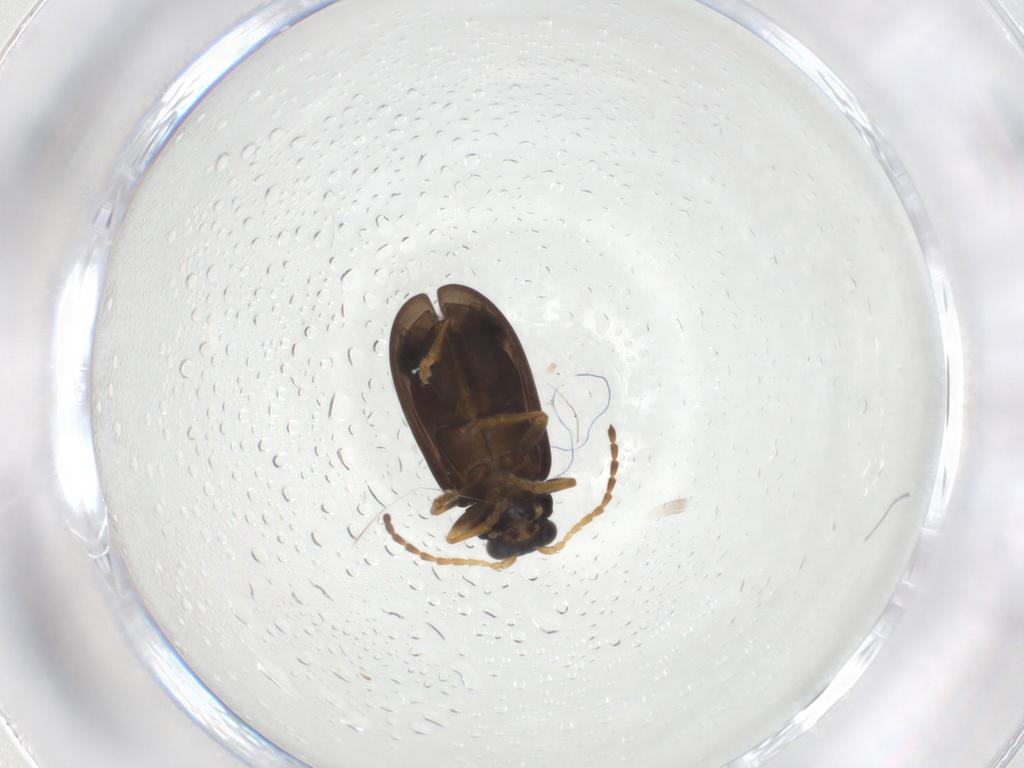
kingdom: Animalia
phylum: Arthropoda
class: Insecta
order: Coleoptera
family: Chrysomelidae
